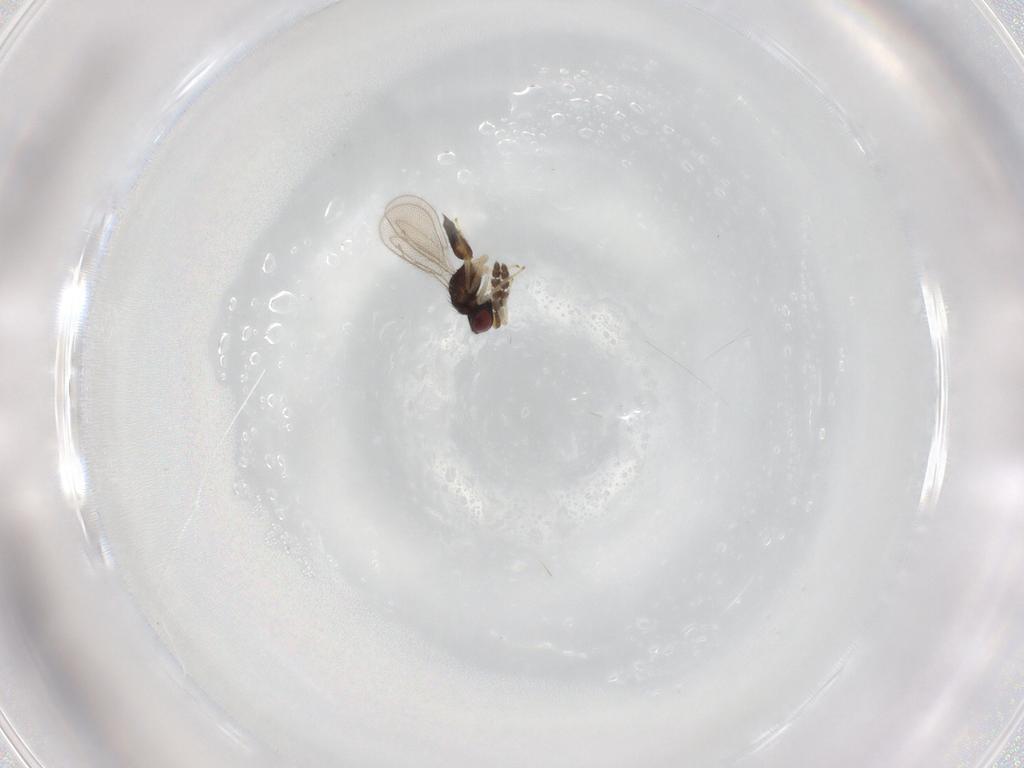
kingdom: Animalia
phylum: Arthropoda
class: Insecta
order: Hymenoptera
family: Eulophidae
